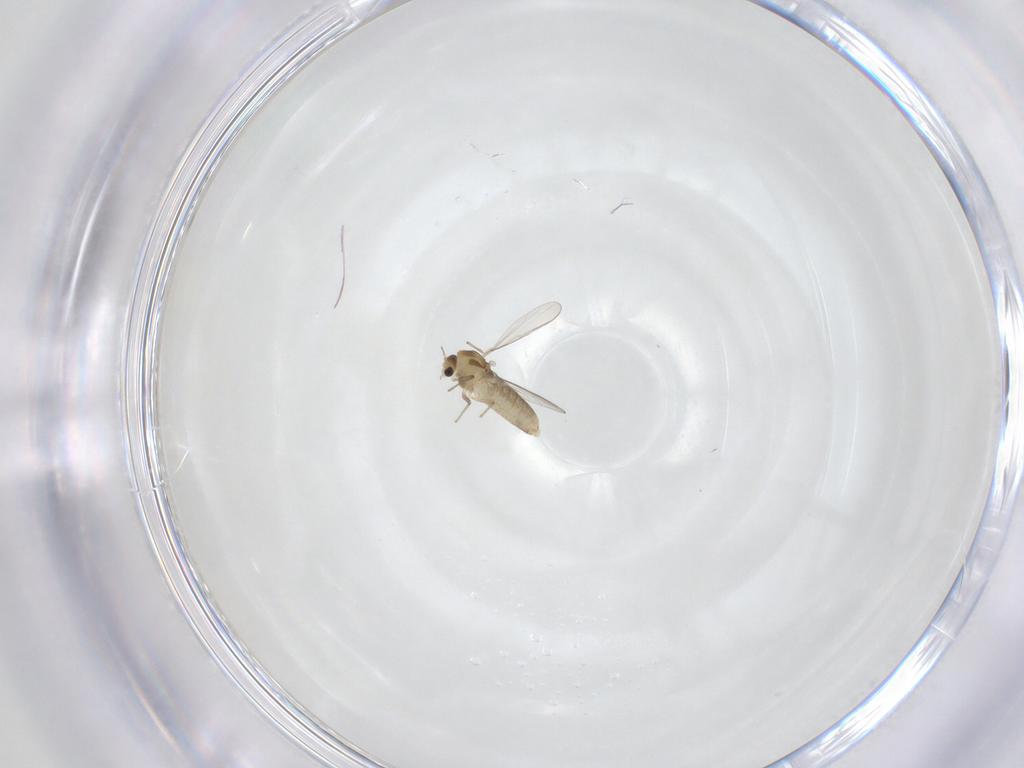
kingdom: Animalia
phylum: Arthropoda
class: Insecta
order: Diptera
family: Chironomidae
